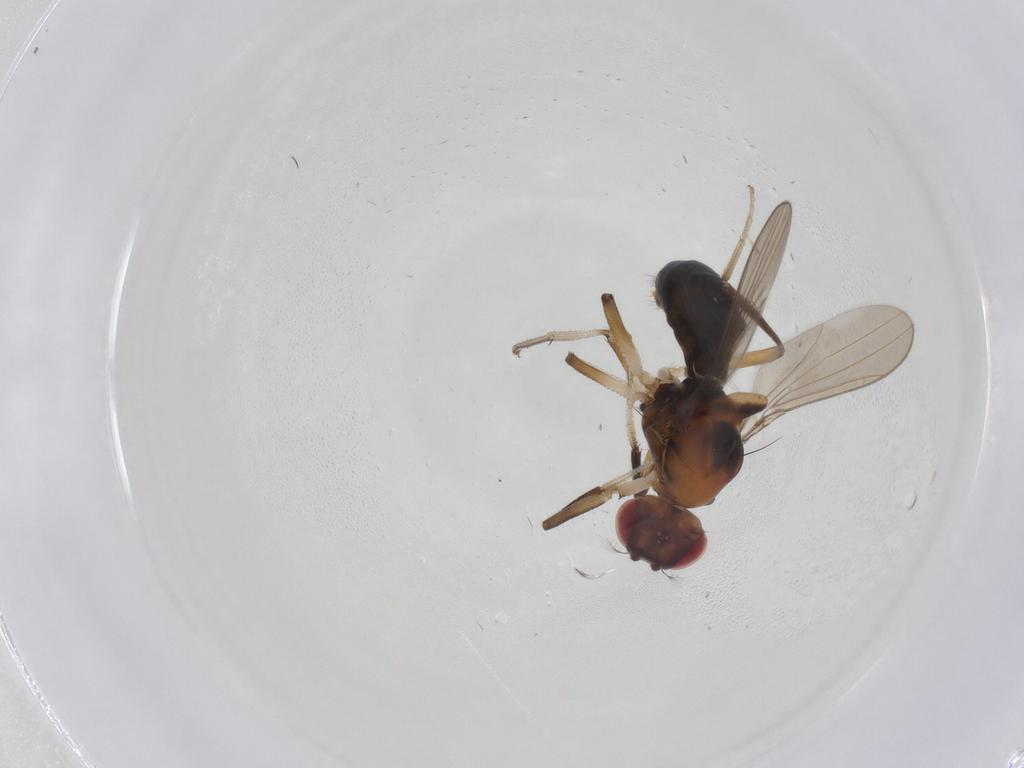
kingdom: Animalia
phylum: Arthropoda
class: Insecta
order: Diptera
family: Drosophilidae
